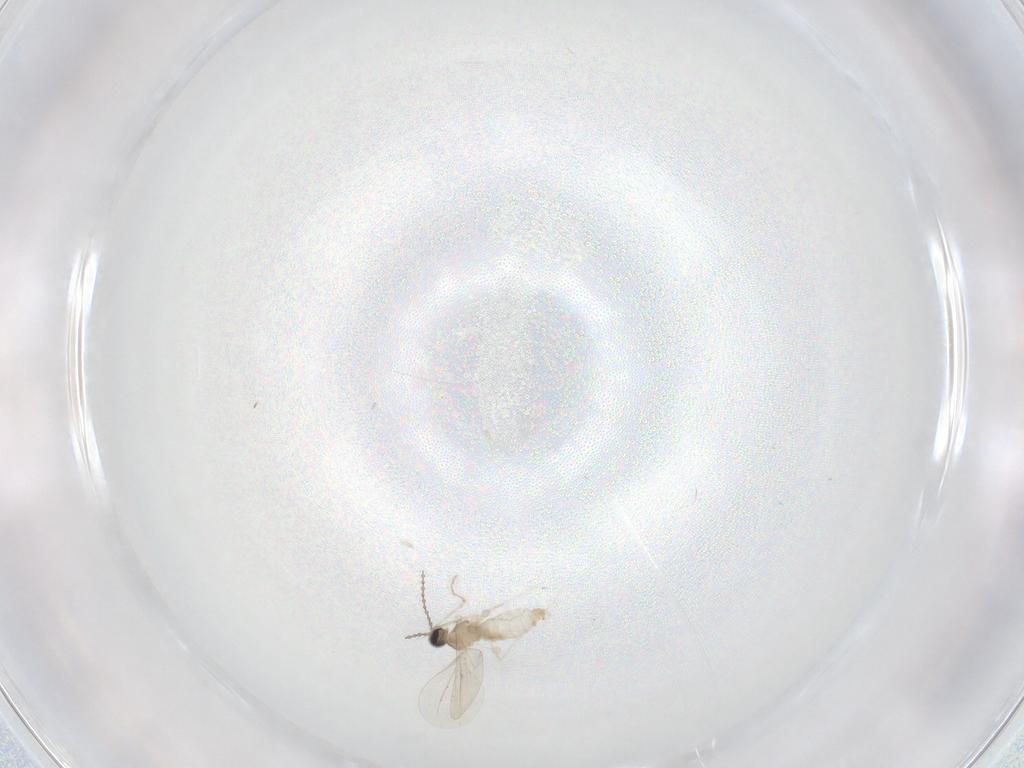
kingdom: Animalia
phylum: Arthropoda
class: Insecta
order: Diptera
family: Cecidomyiidae
